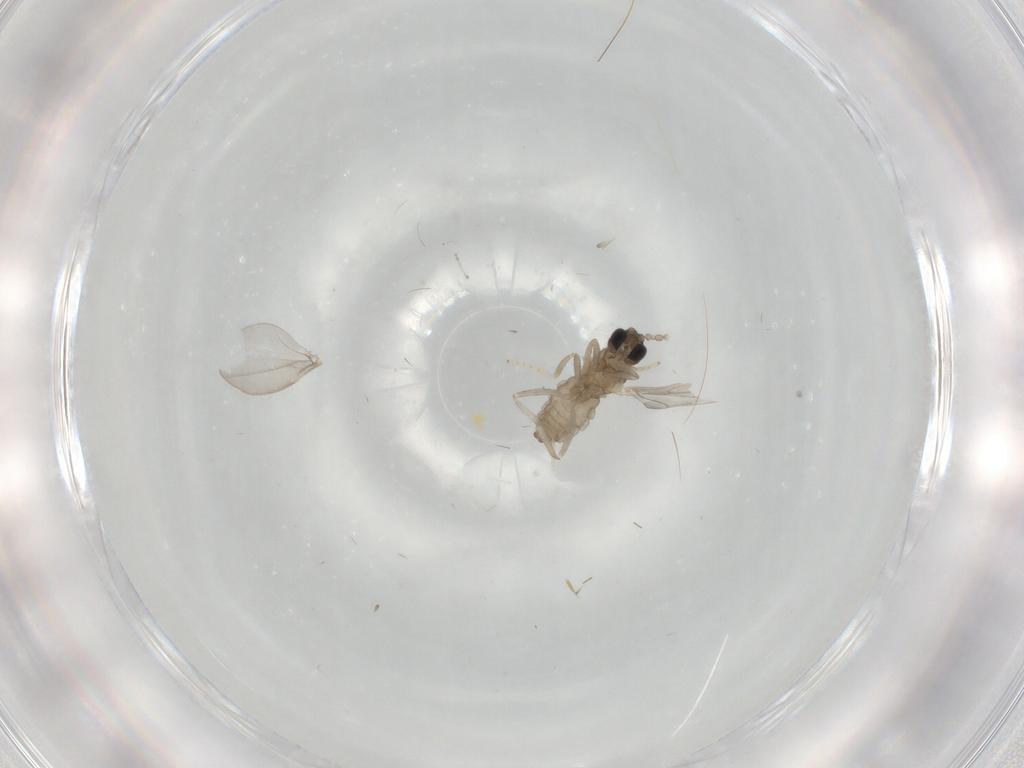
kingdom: Animalia
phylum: Arthropoda
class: Insecta
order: Diptera
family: Cecidomyiidae
